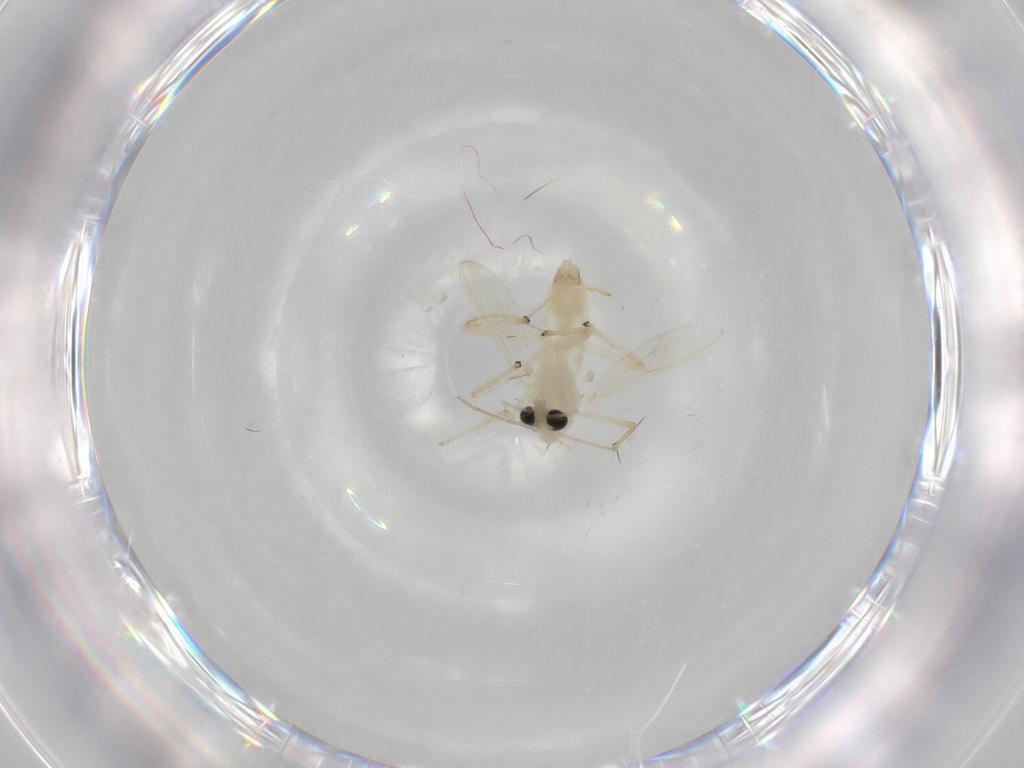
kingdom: Animalia
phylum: Arthropoda
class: Insecta
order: Diptera
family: Chironomidae
